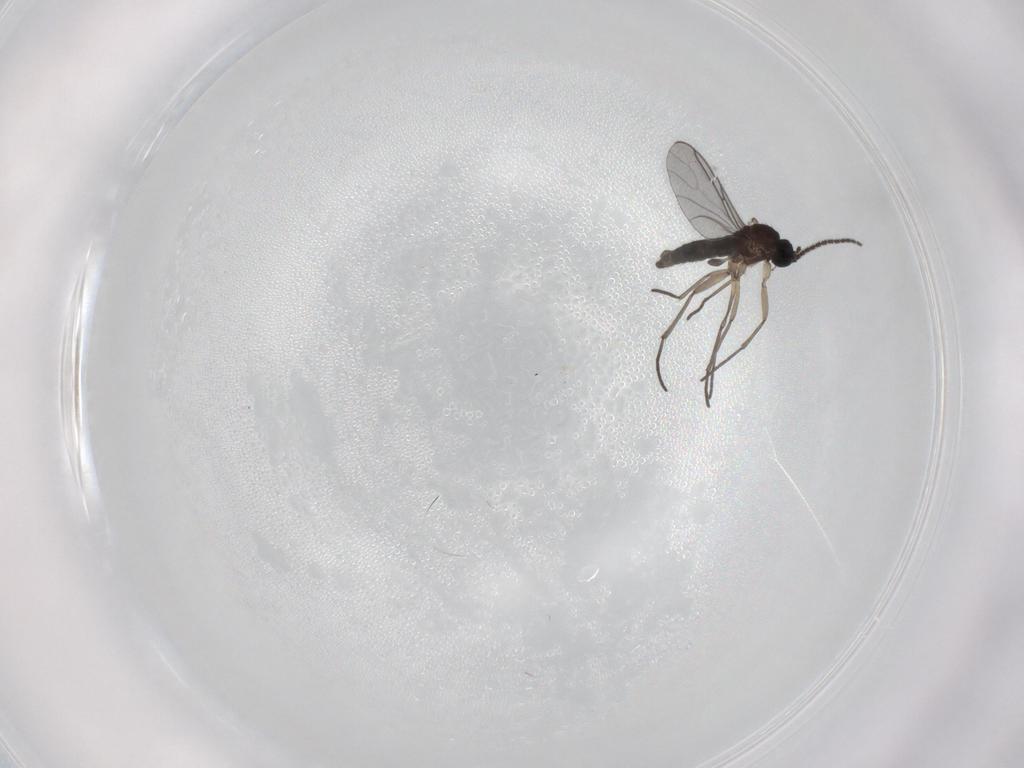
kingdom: Animalia
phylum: Arthropoda
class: Insecta
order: Diptera
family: Sciaridae
